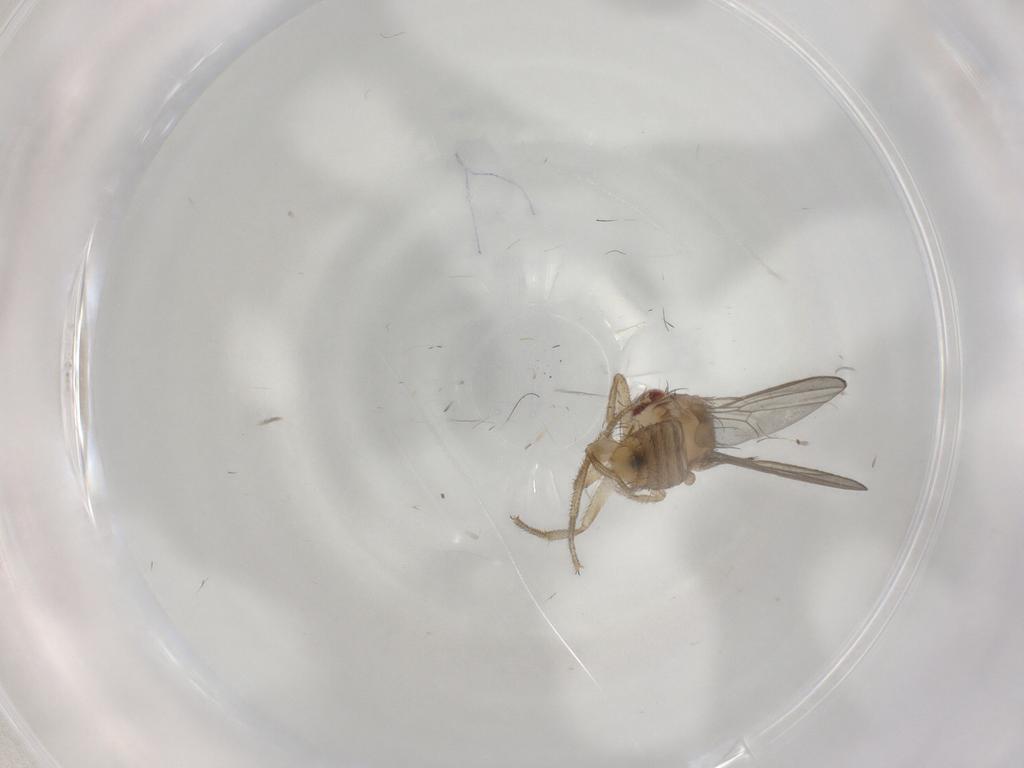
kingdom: Animalia
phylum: Arthropoda
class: Insecta
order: Diptera
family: Drosophilidae
